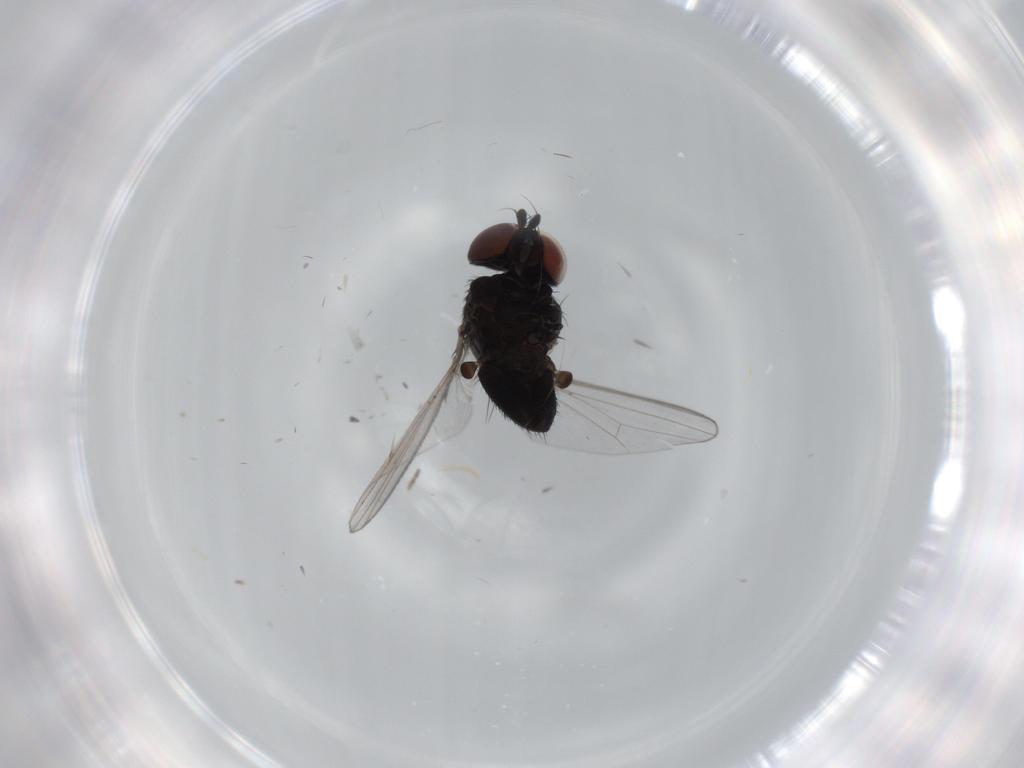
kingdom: Animalia
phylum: Arthropoda
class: Insecta
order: Diptera
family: Milichiidae
